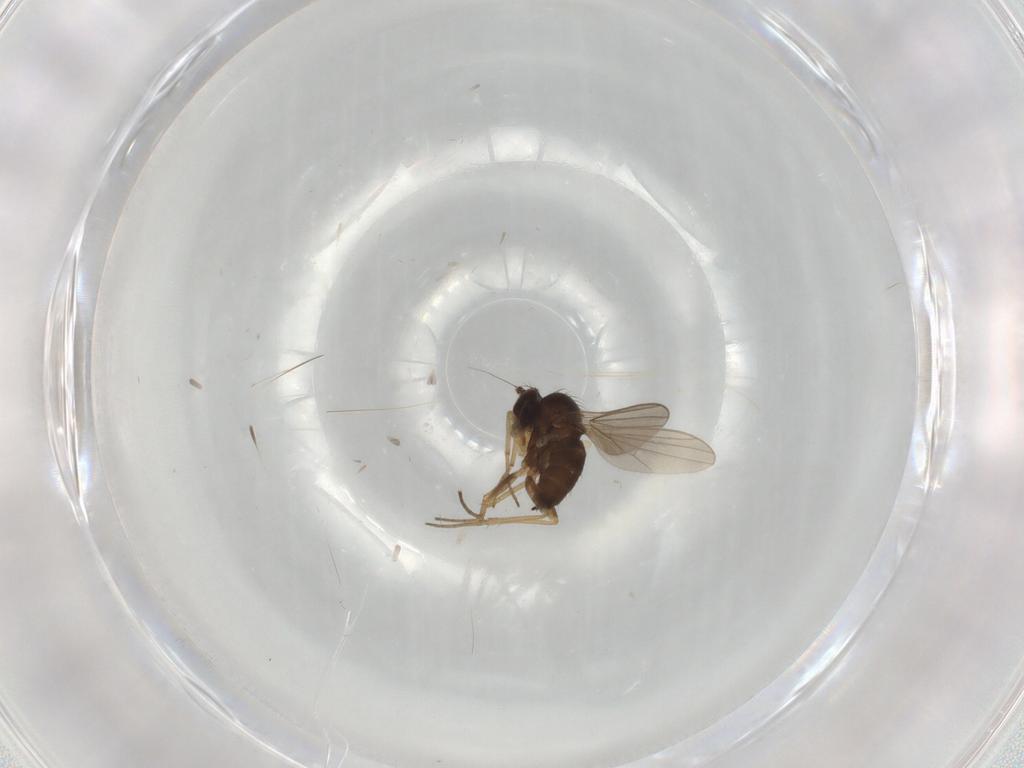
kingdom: Animalia
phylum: Arthropoda
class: Insecta
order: Diptera
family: Dolichopodidae
